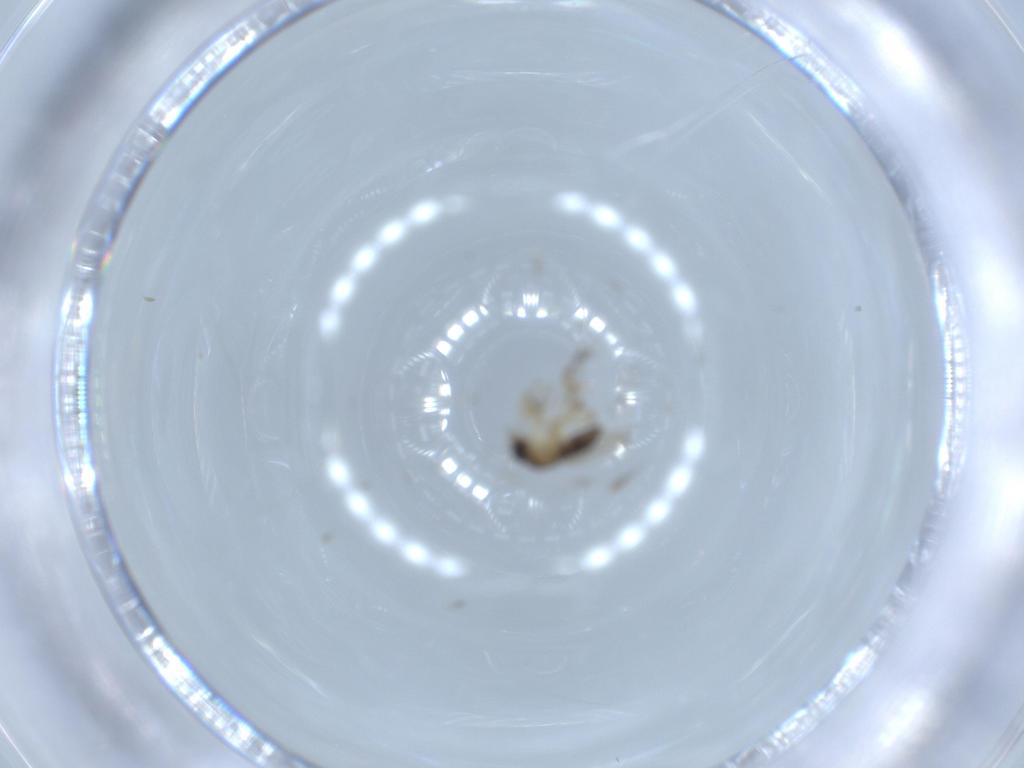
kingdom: Animalia
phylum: Arthropoda
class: Insecta
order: Diptera
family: Phoridae
